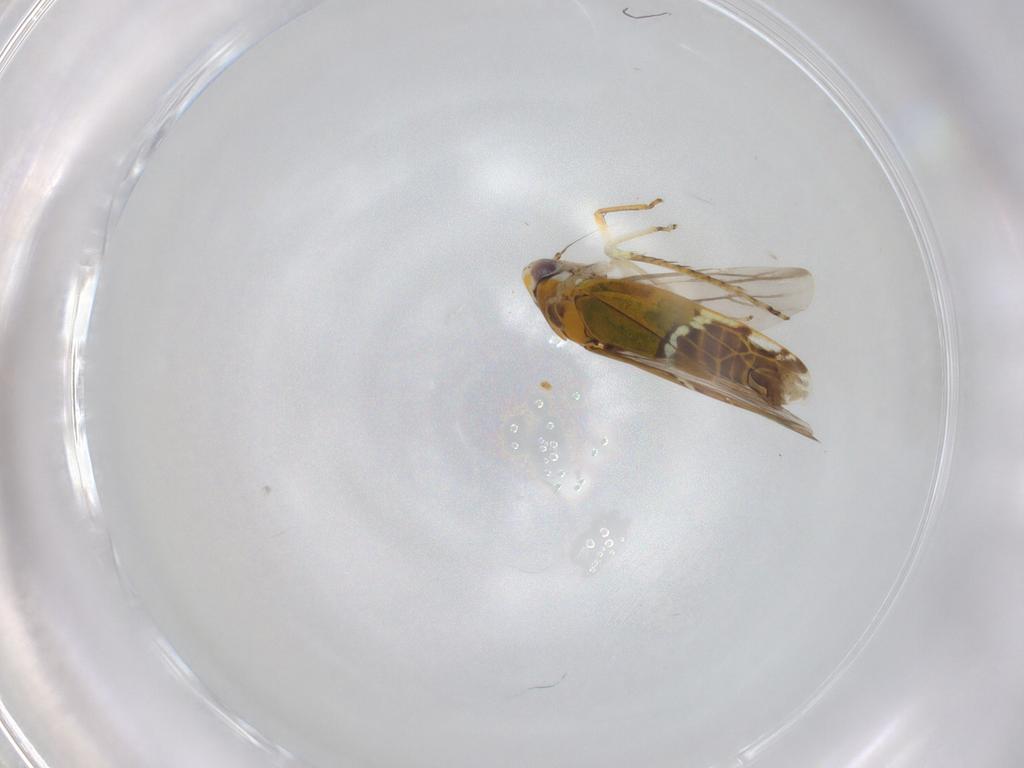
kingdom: Animalia
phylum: Arthropoda
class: Insecta
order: Hemiptera
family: Cicadellidae
